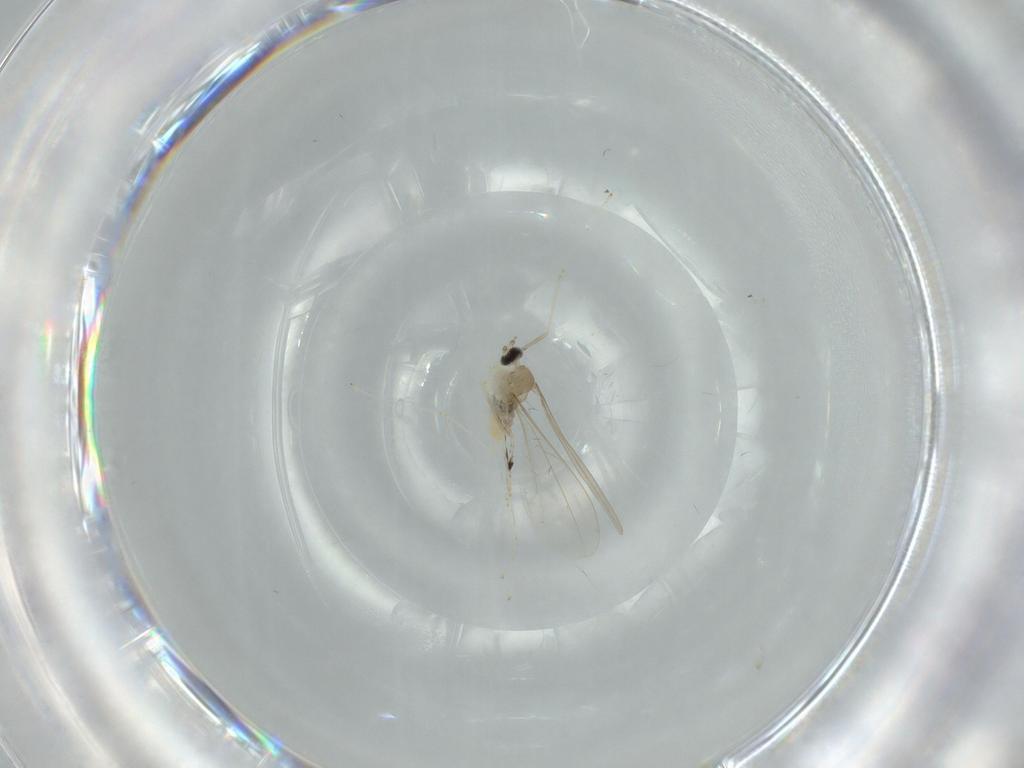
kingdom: Animalia
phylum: Arthropoda
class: Insecta
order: Diptera
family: Cecidomyiidae
